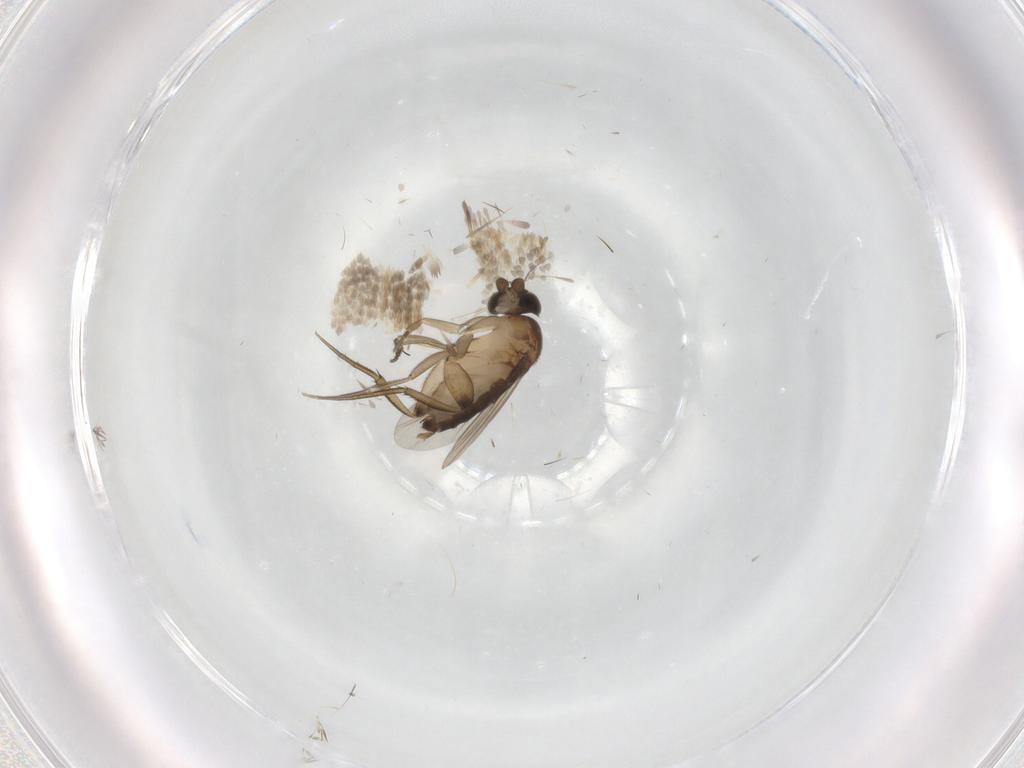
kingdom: Animalia
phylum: Arthropoda
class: Insecta
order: Diptera
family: Phoridae
